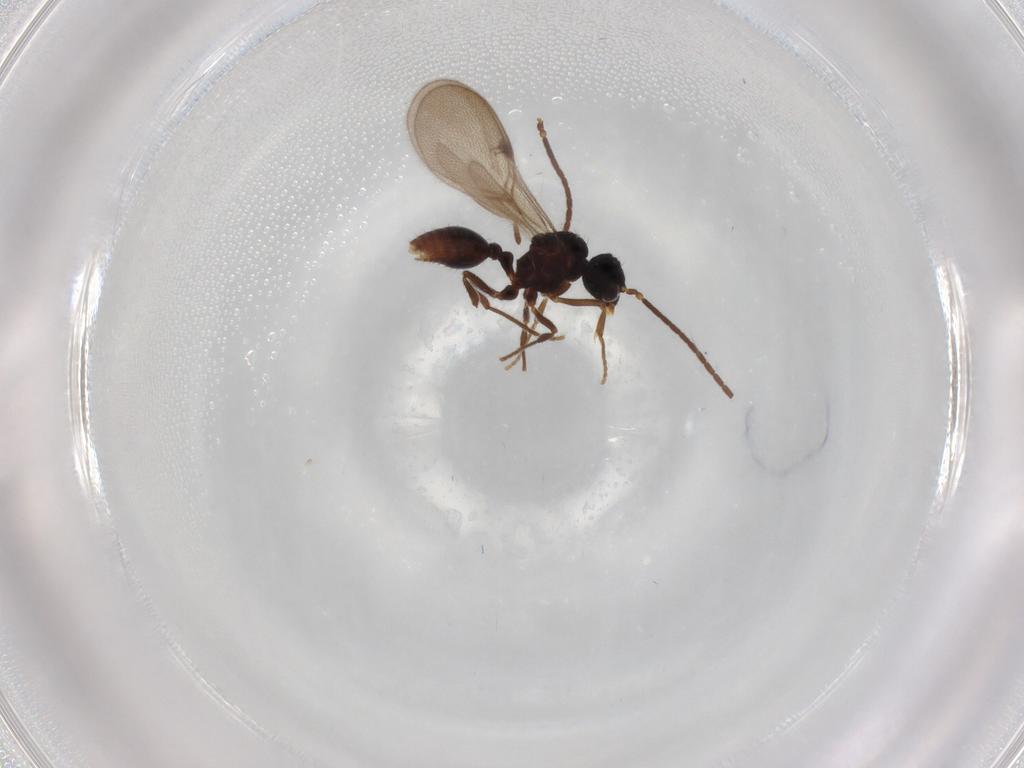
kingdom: Animalia
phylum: Arthropoda
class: Insecta
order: Hymenoptera
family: Formicidae
